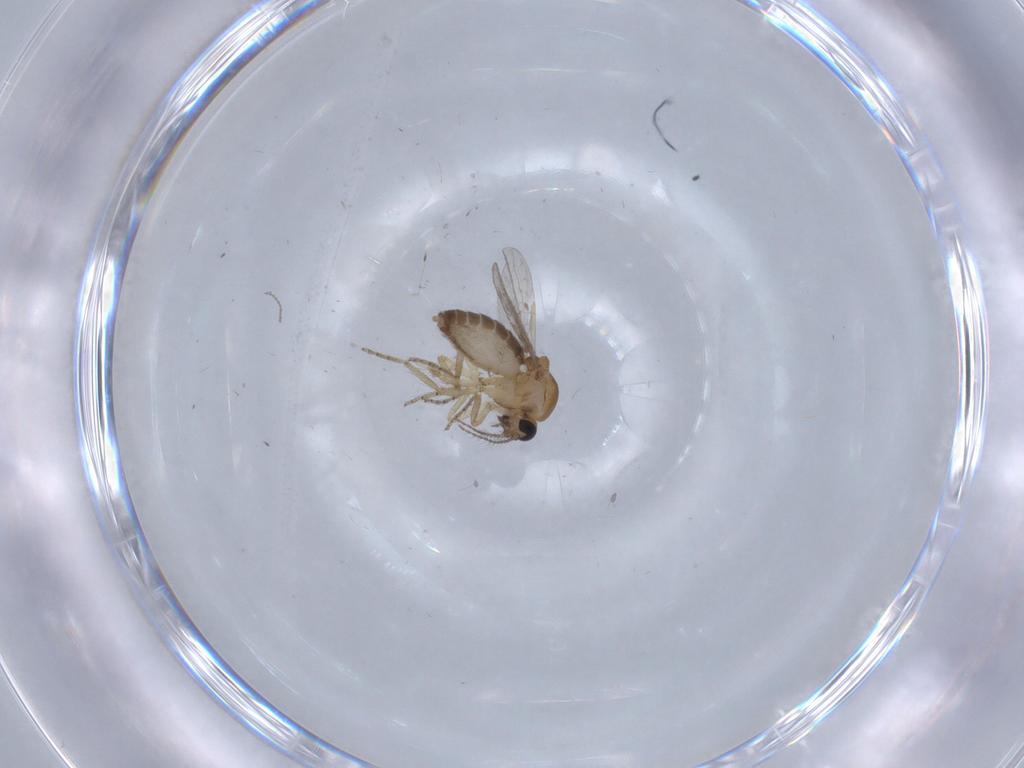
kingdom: Animalia
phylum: Arthropoda
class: Insecta
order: Diptera
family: Ceratopogonidae
